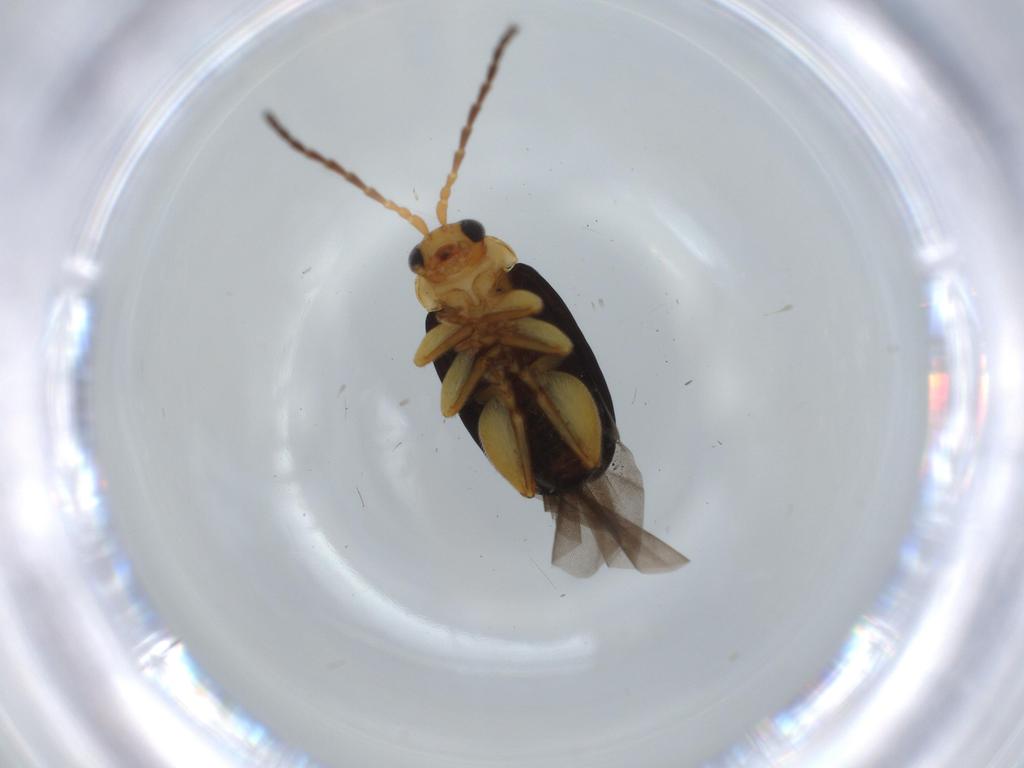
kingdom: Animalia
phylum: Arthropoda
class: Insecta
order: Coleoptera
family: Chrysomelidae
